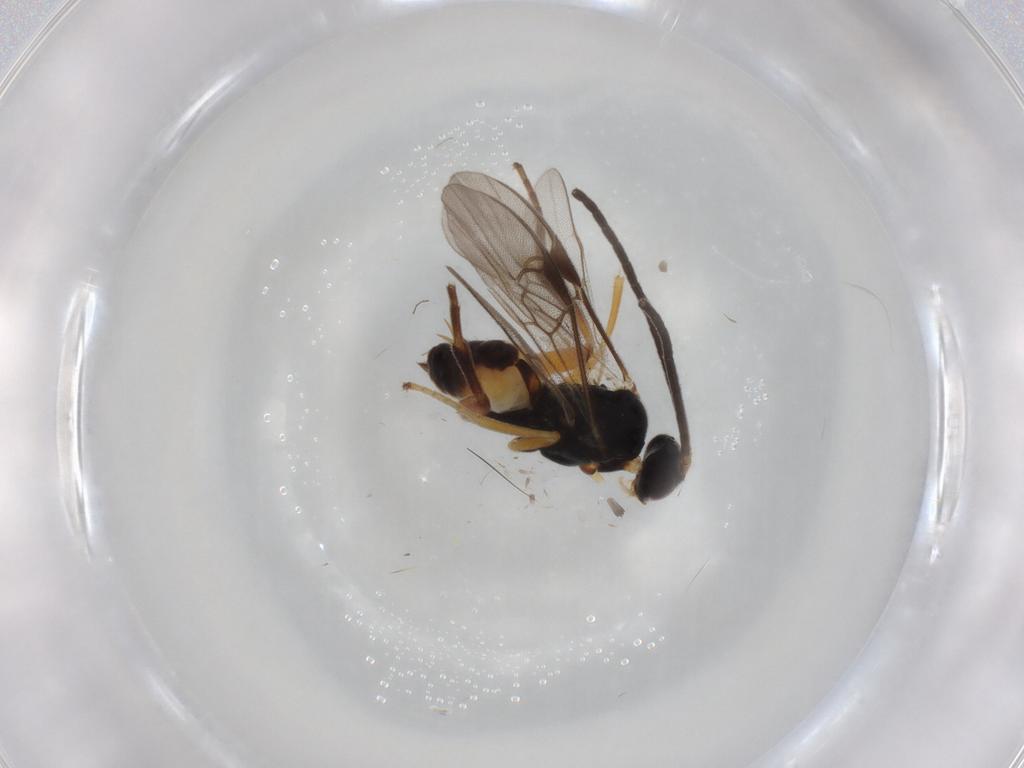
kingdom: Animalia
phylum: Arthropoda
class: Insecta
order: Hymenoptera
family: Braconidae
